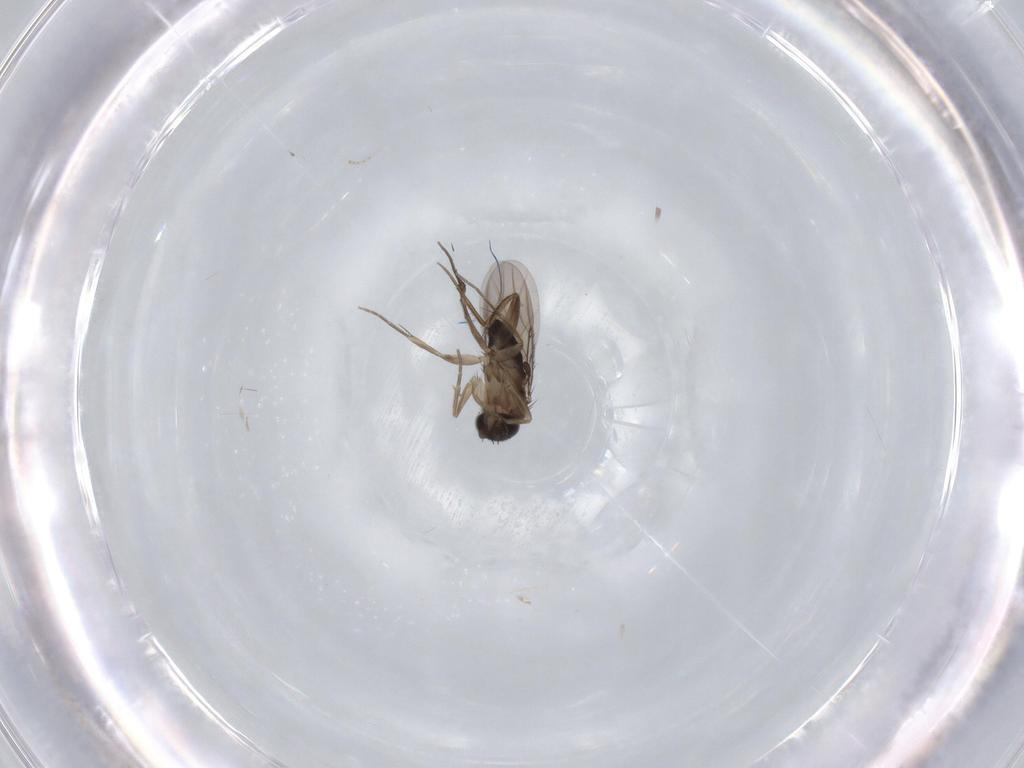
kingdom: Animalia
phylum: Arthropoda
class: Insecta
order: Diptera
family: Phoridae
